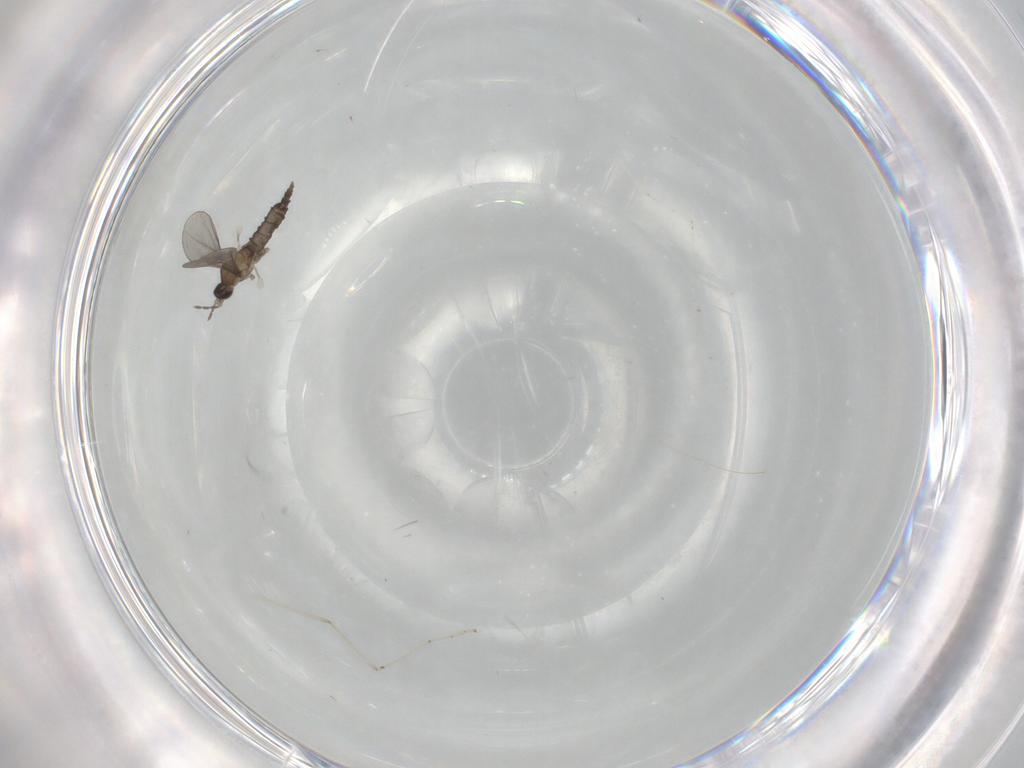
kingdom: Animalia
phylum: Arthropoda
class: Insecta
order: Diptera
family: Cecidomyiidae
